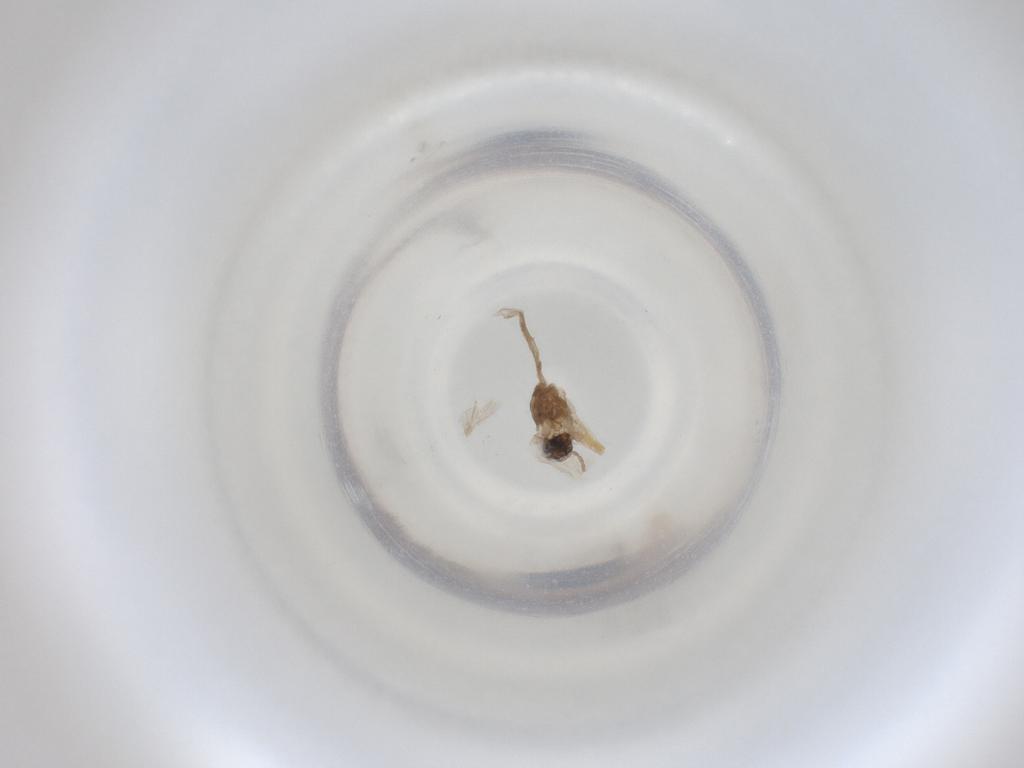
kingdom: Animalia
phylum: Arthropoda
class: Insecta
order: Diptera
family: Cecidomyiidae
